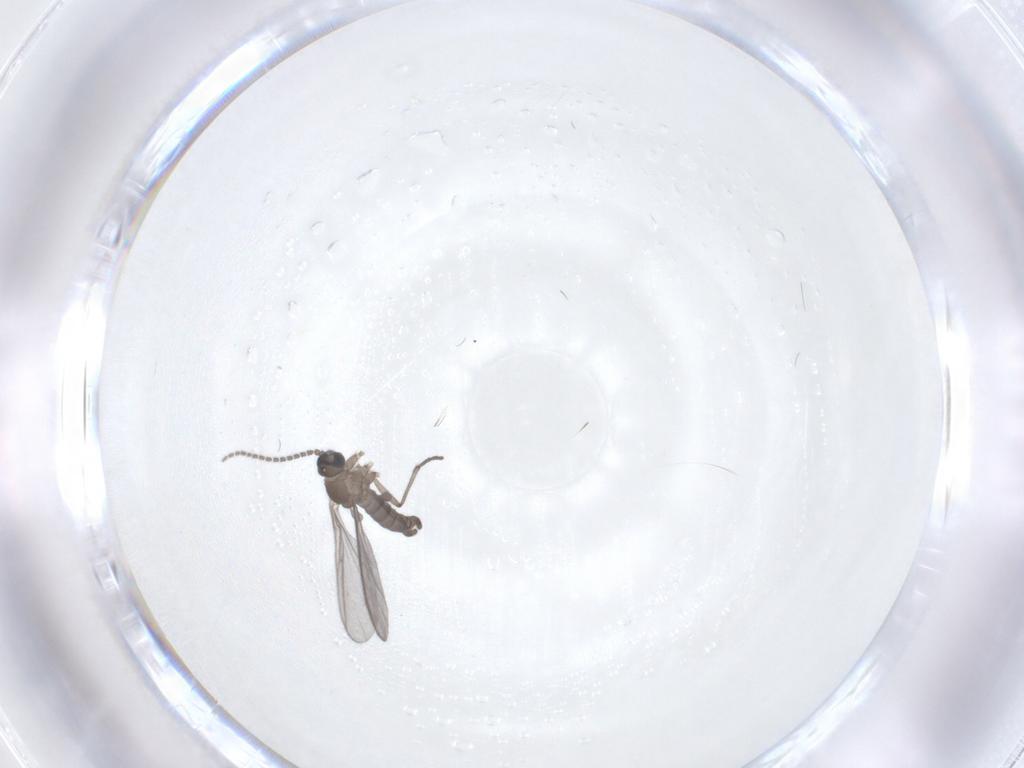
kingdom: Animalia
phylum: Arthropoda
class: Insecta
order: Diptera
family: Sciaridae
